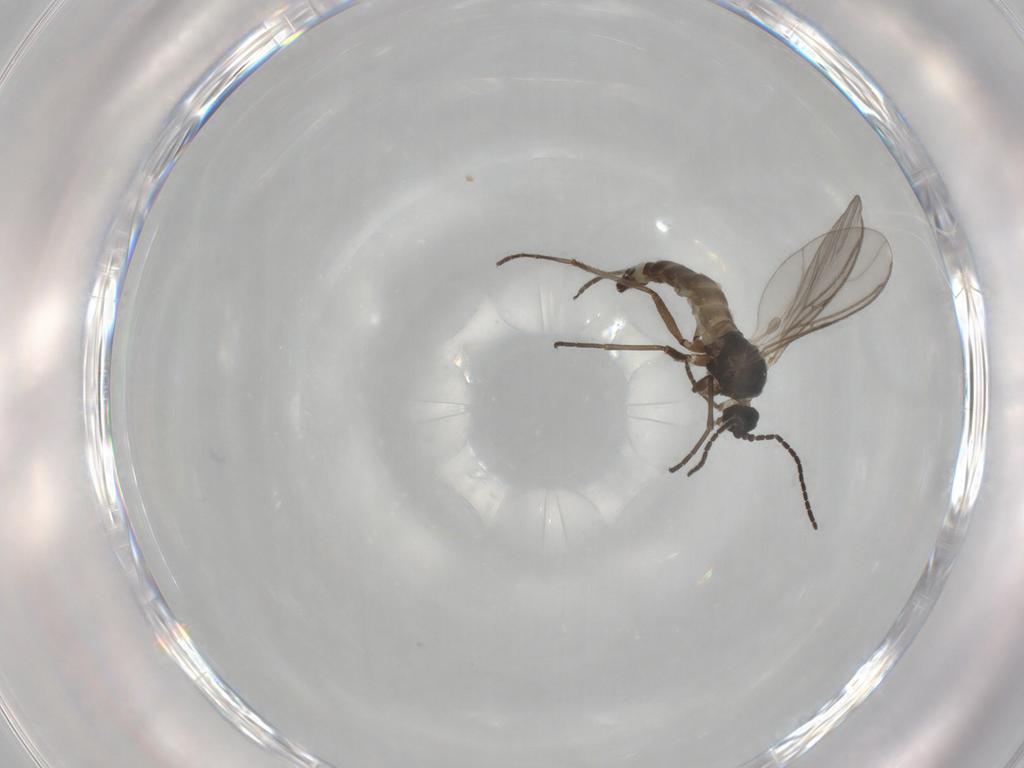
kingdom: Animalia
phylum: Arthropoda
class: Insecta
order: Diptera
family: Sciaridae
